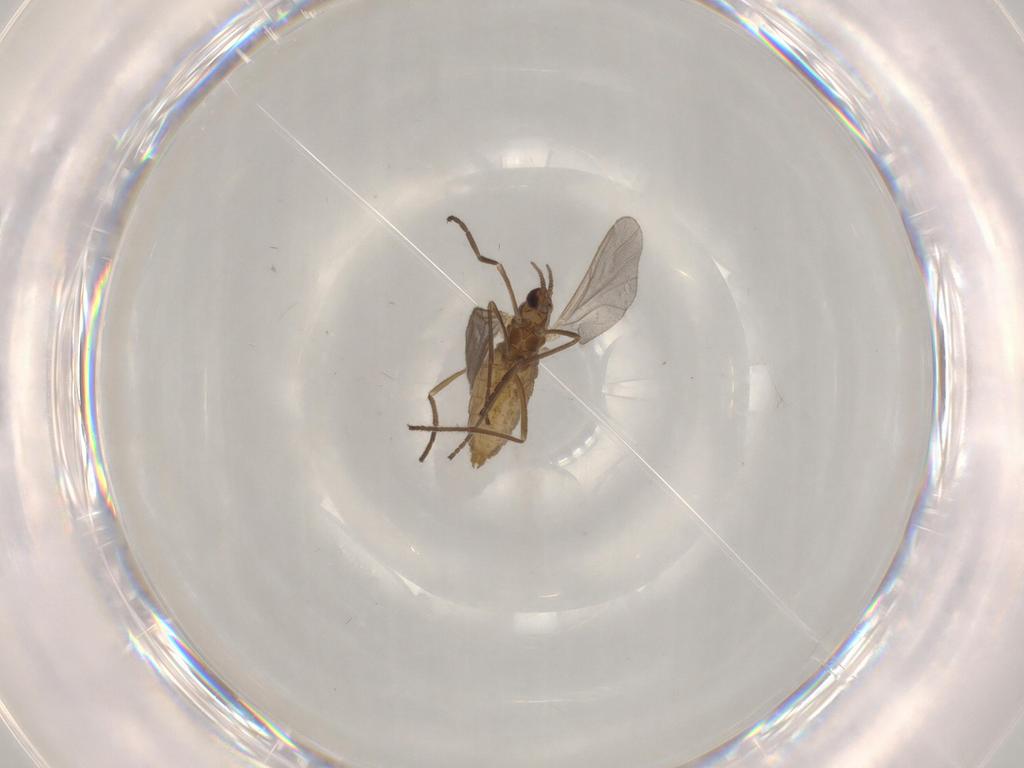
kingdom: Animalia
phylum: Arthropoda
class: Insecta
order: Diptera
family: Cecidomyiidae
